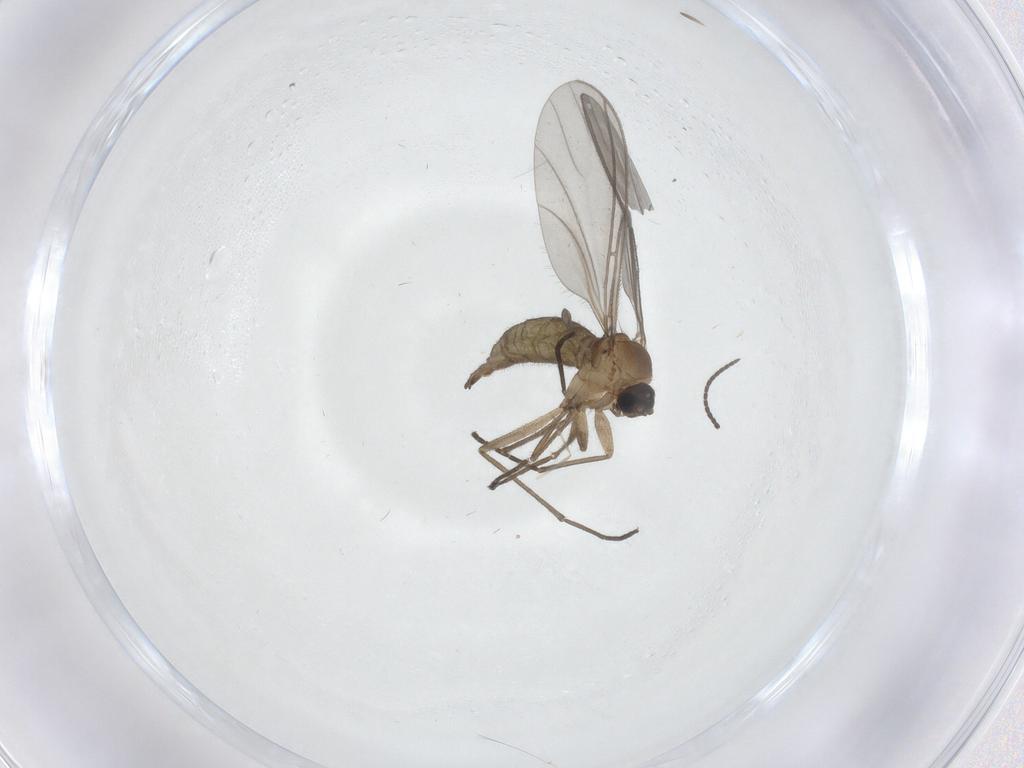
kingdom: Animalia
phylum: Arthropoda
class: Insecta
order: Diptera
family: Sciaridae
